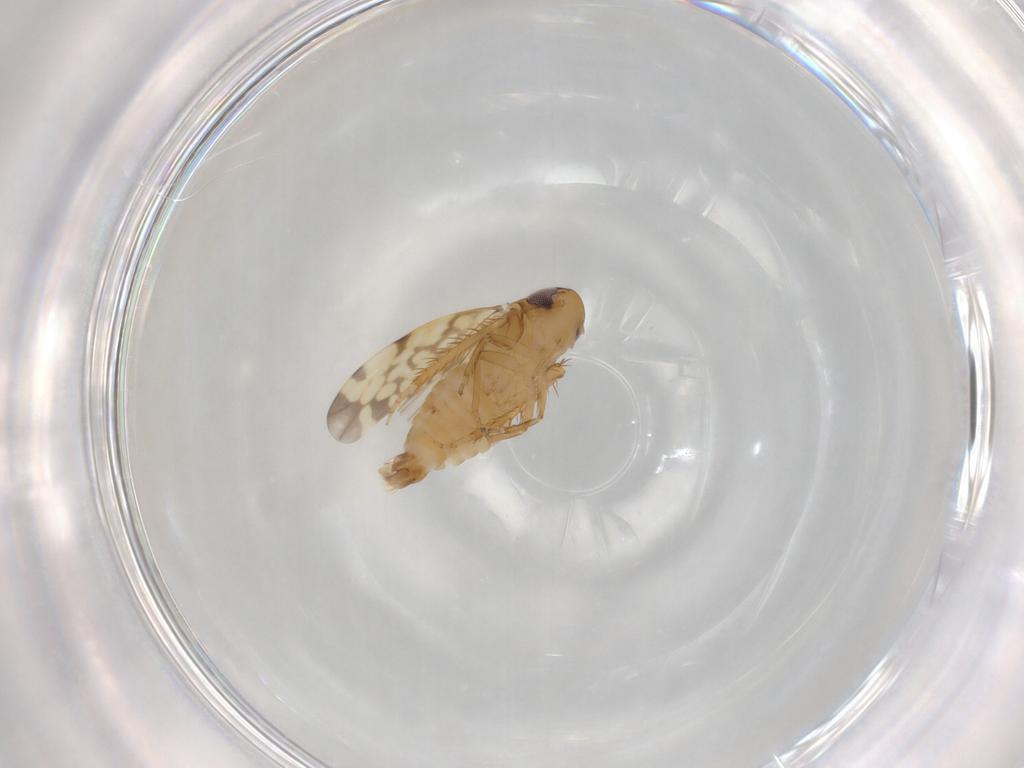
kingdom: Animalia
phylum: Arthropoda
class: Insecta
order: Hemiptera
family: Cicadellidae
